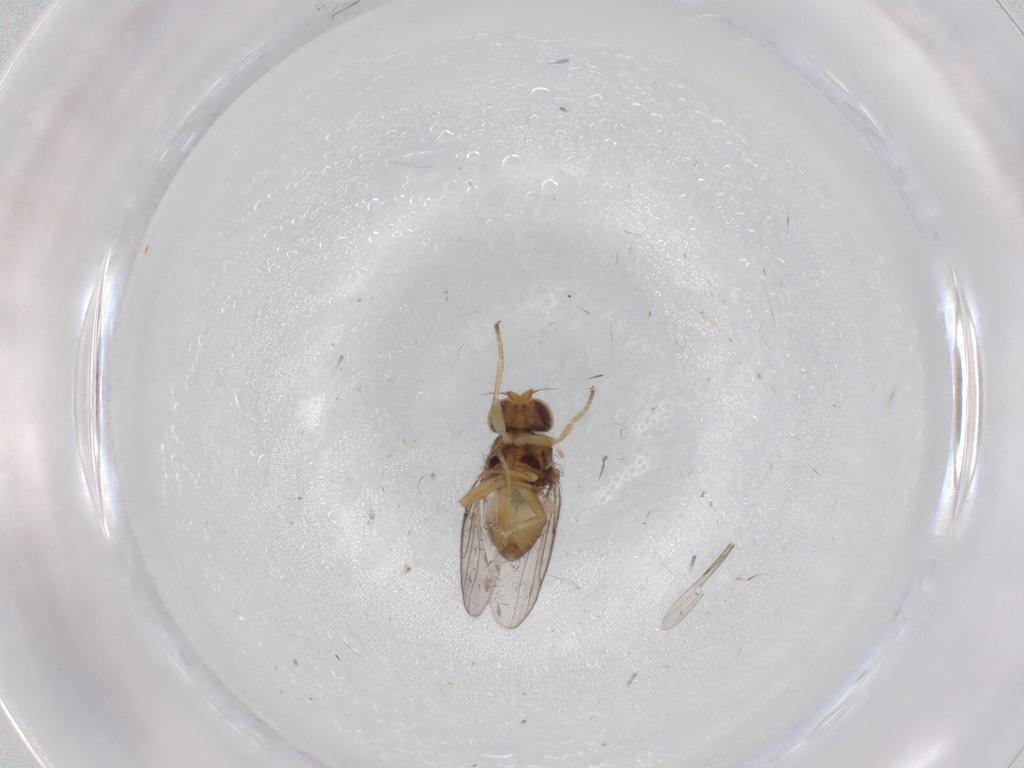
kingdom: Animalia
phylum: Arthropoda
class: Insecta
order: Diptera
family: Chloropidae
